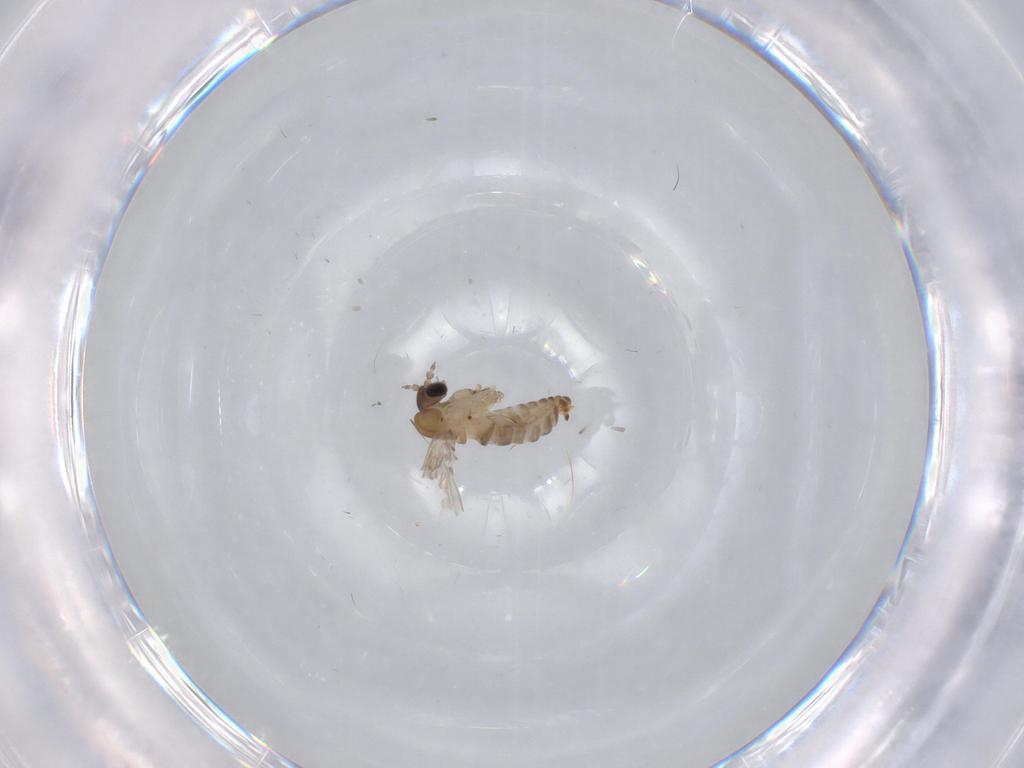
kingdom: Animalia
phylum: Arthropoda
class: Insecta
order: Diptera
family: Psychodidae
